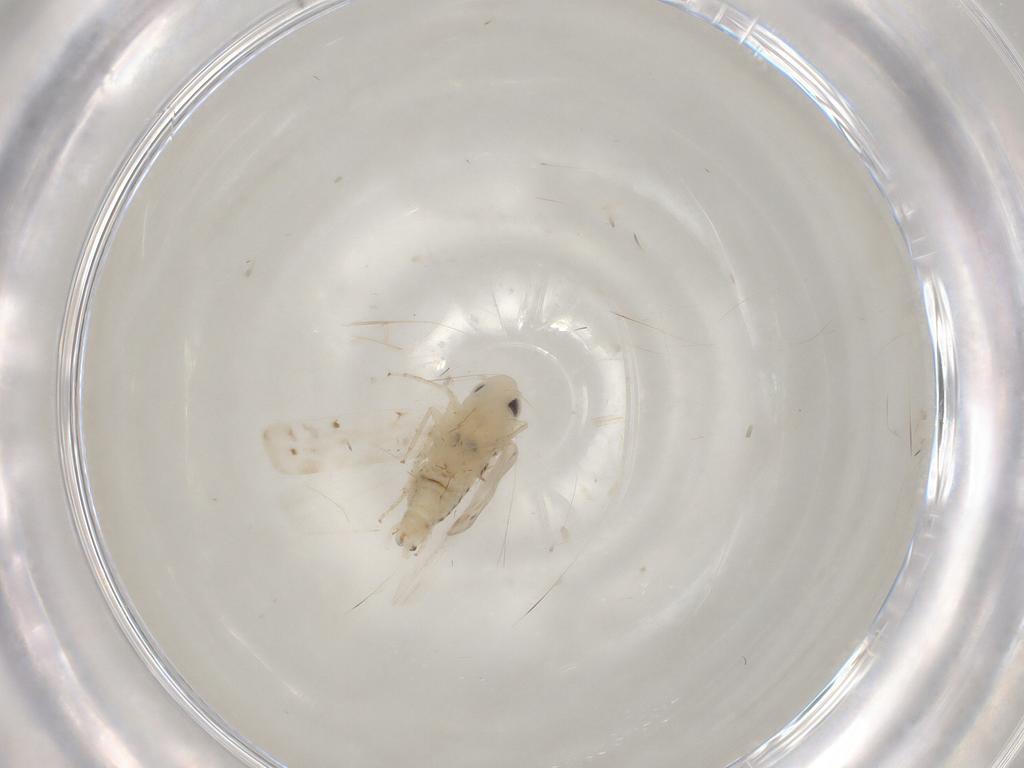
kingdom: Animalia
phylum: Arthropoda
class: Insecta
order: Hemiptera
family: Cicadellidae
